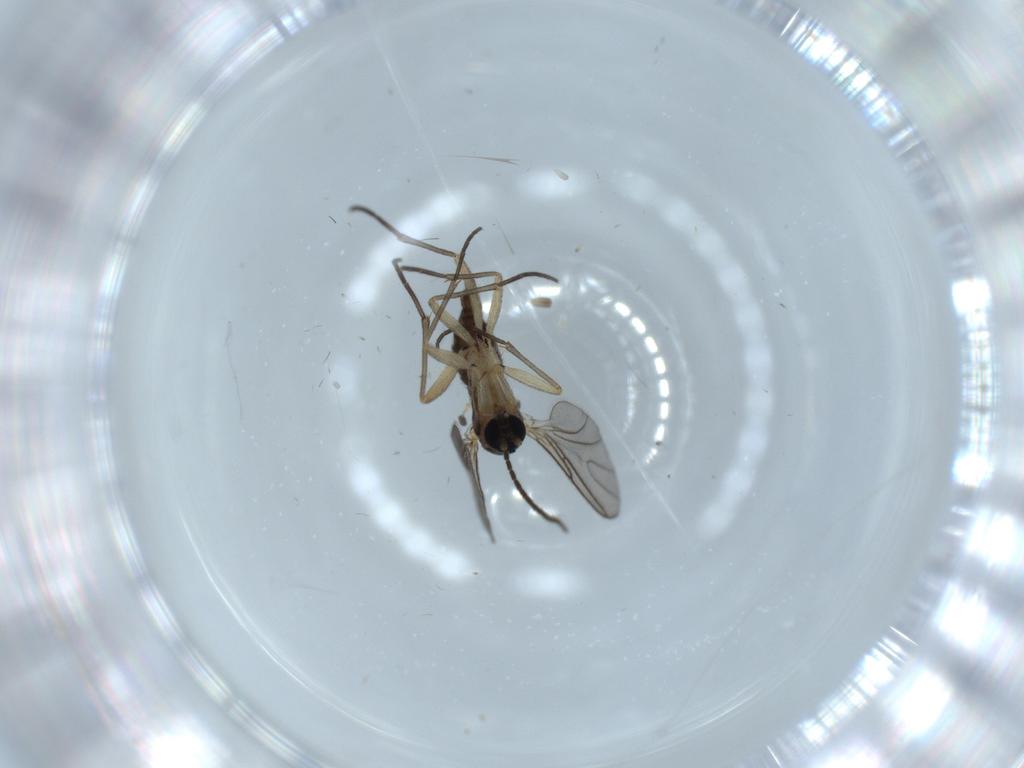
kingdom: Animalia
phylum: Arthropoda
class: Insecta
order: Diptera
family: Sciaridae
